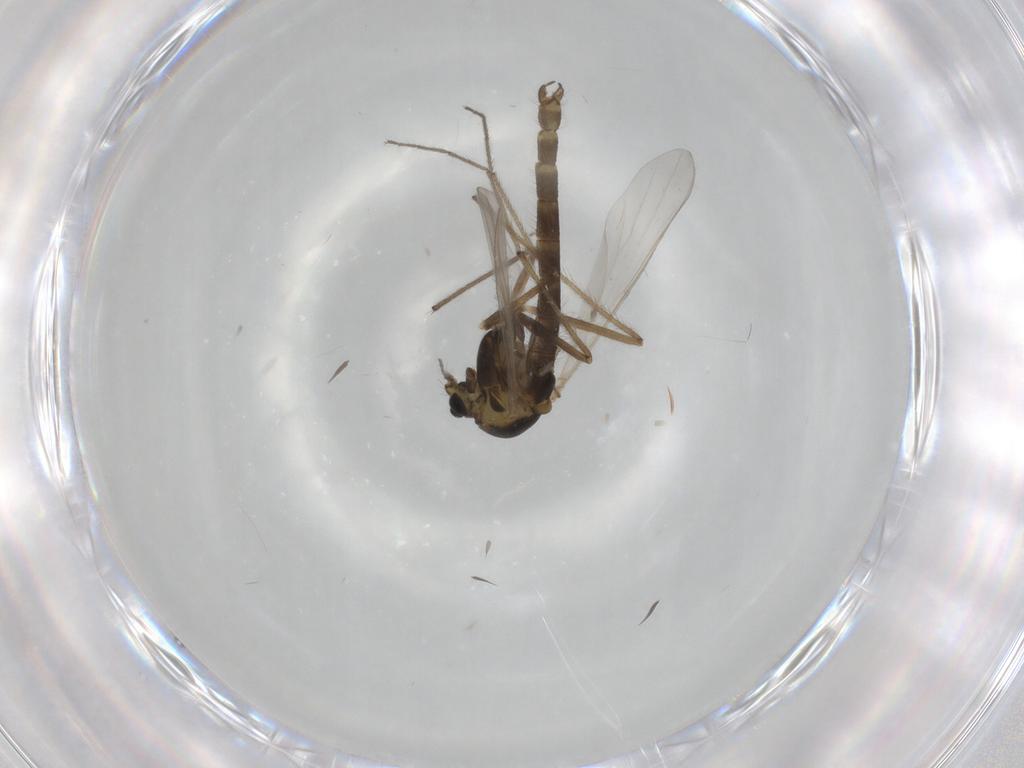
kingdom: Animalia
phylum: Arthropoda
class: Insecta
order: Diptera
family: Chironomidae
